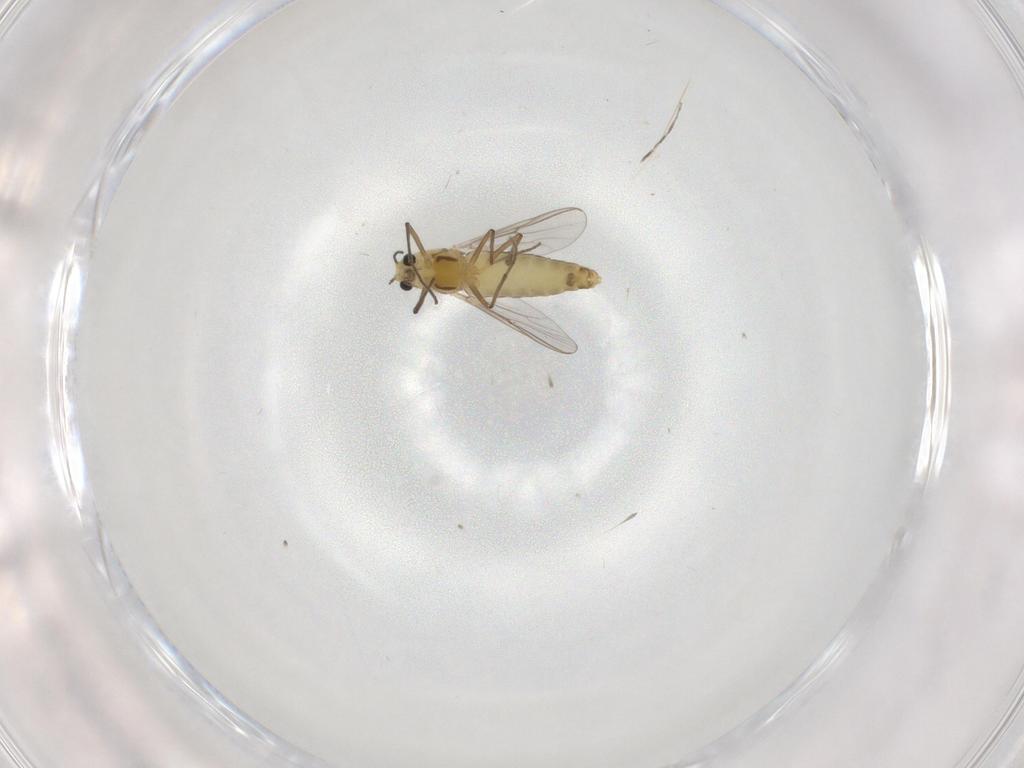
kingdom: Animalia
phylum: Arthropoda
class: Insecta
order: Diptera
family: Chironomidae
